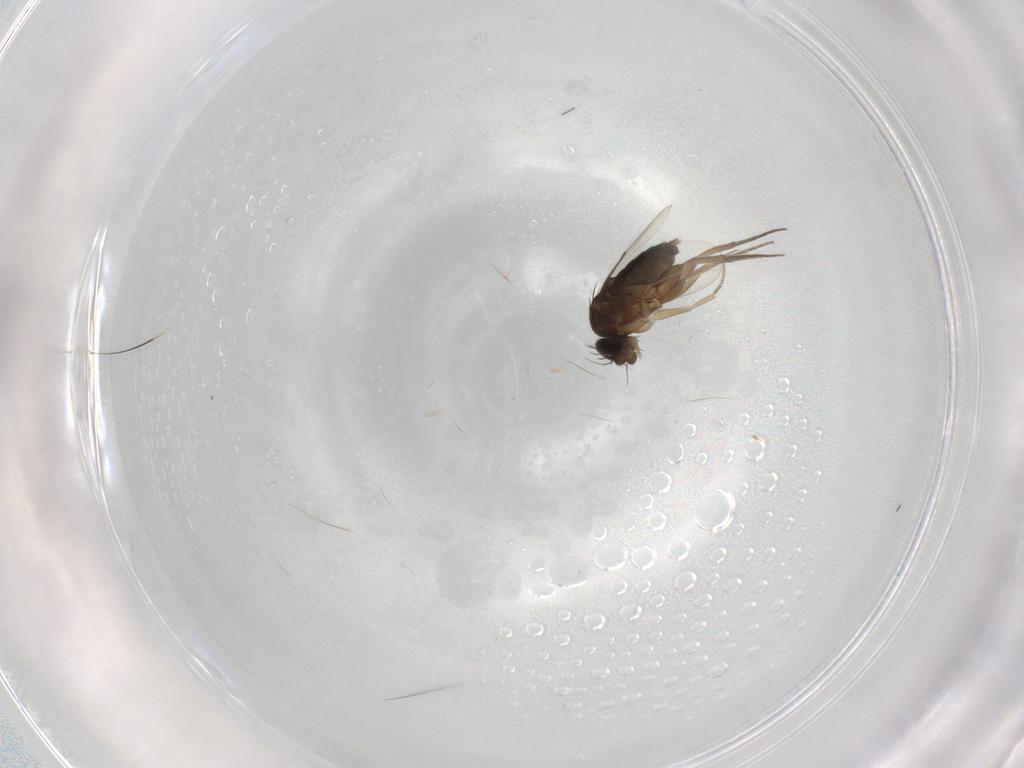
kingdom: Animalia
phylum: Arthropoda
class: Insecta
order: Diptera
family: Phoridae
